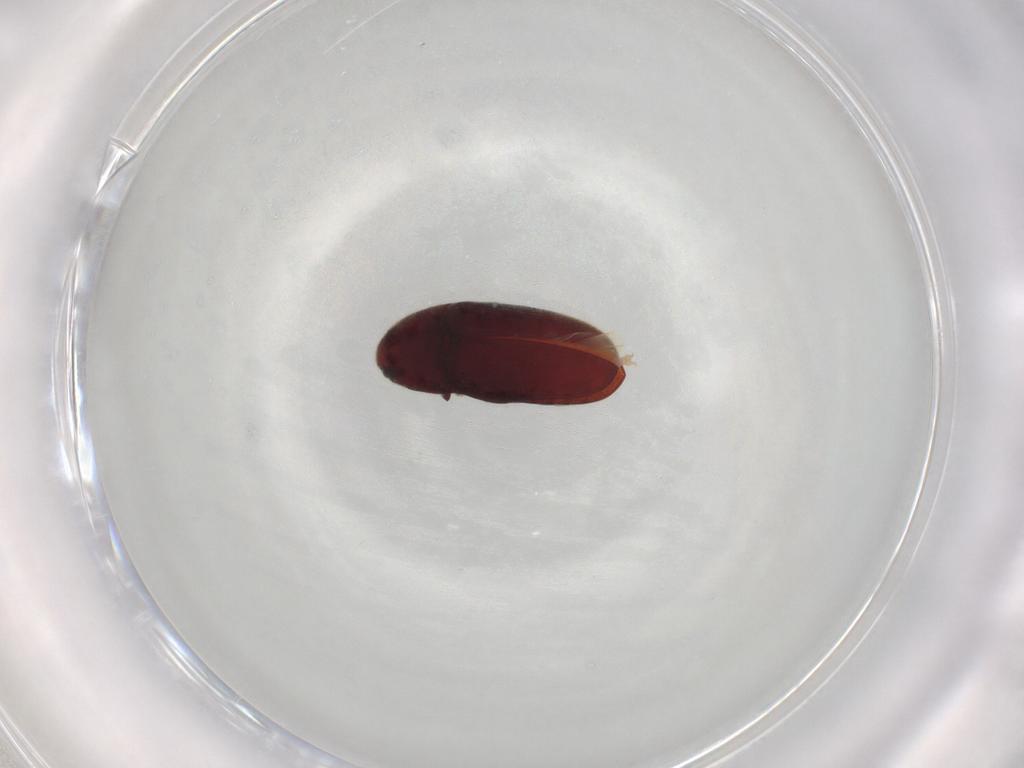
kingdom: Animalia
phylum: Arthropoda
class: Insecta
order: Coleoptera
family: Throscidae
